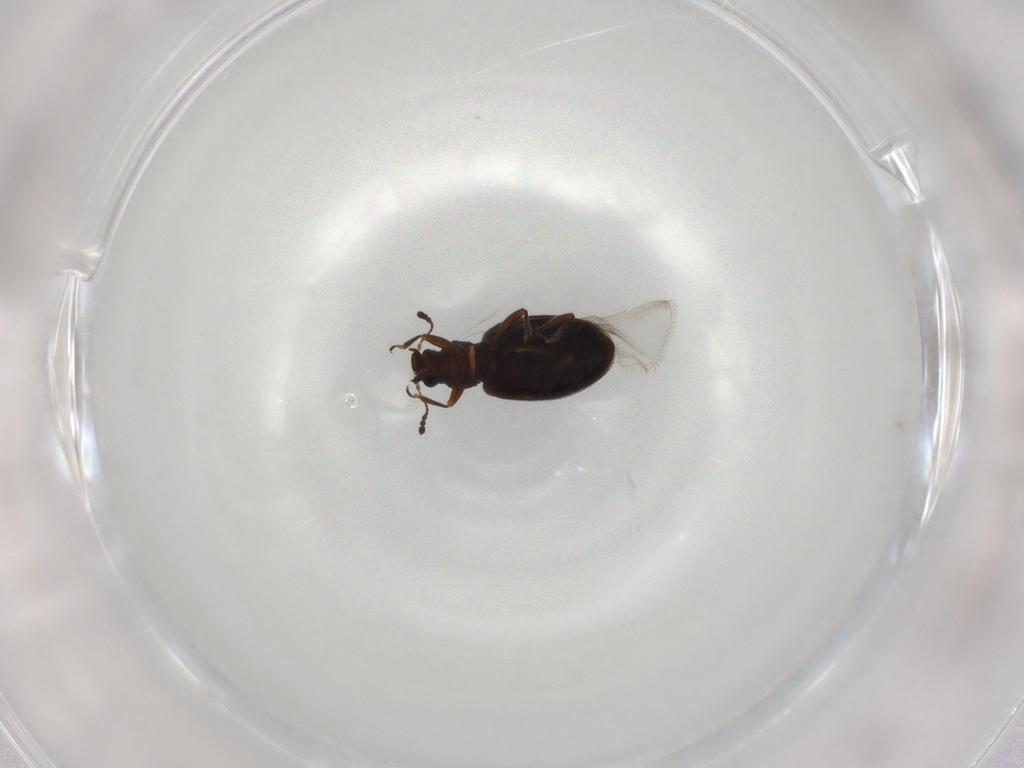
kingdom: Animalia
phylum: Arthropoda
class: Insecta
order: Coleoptera
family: Latridiidae
